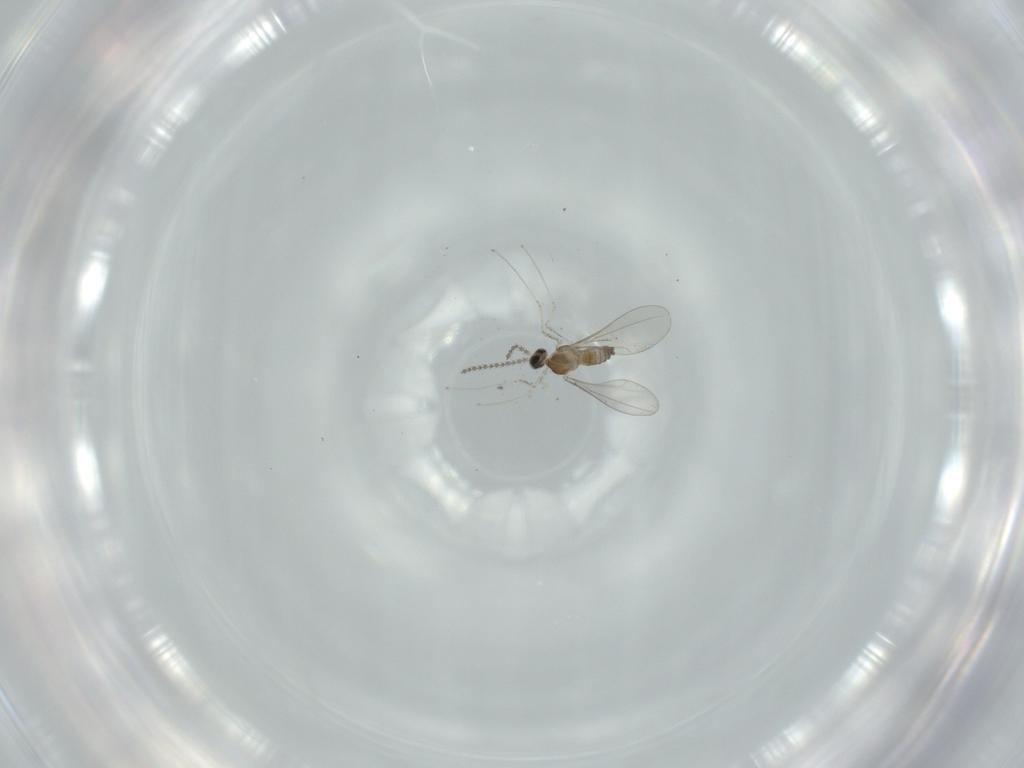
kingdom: Animalia
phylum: Arthropoda
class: Insecta
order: Diptera
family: Cecidomyiidae
